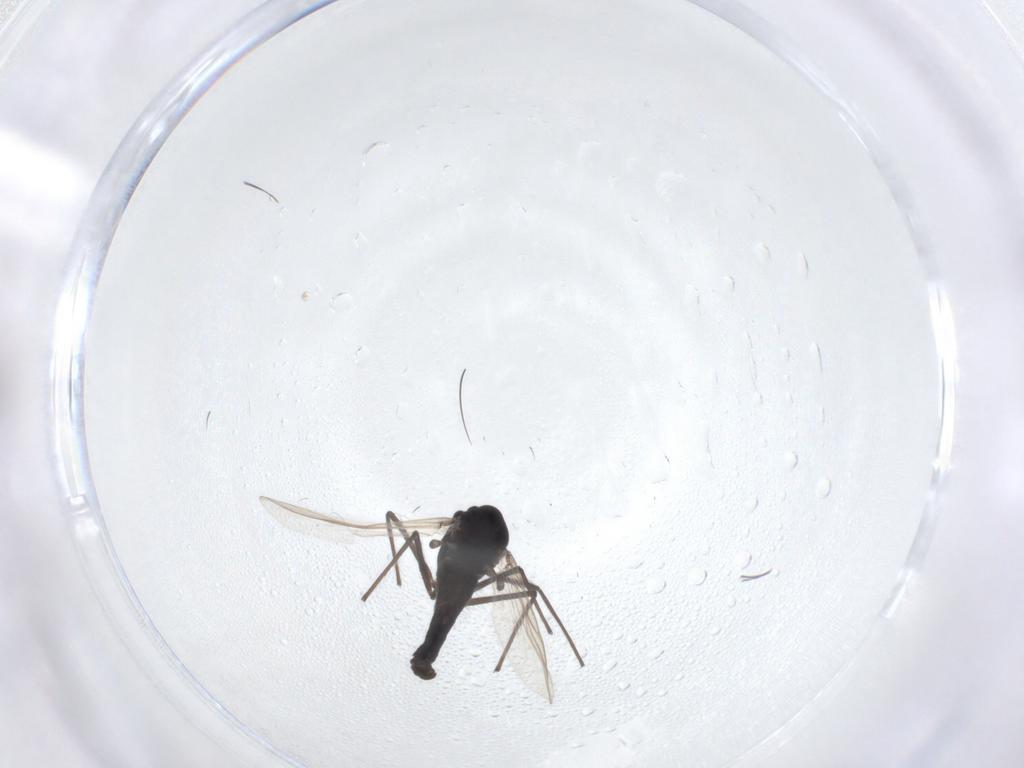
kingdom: Animalia
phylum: Arthropoda
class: Insecta
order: Diptera
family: Chironomidae
